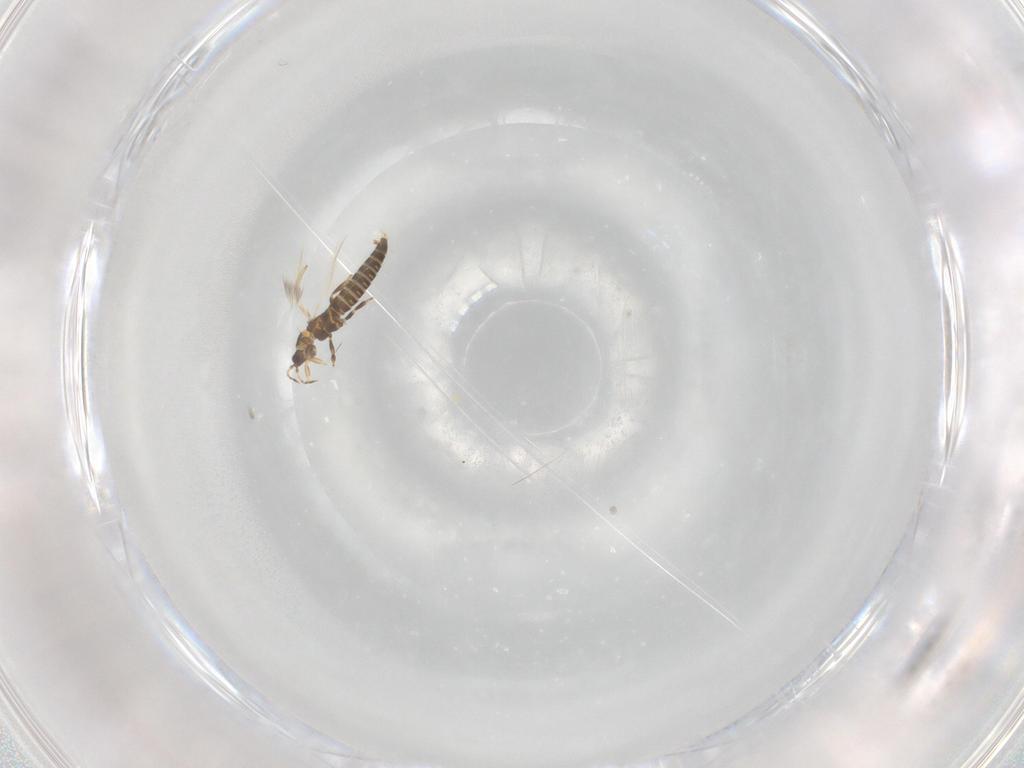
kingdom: Animalia
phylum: Arthropoda
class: Insecta
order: Thysanoptera
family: Thripidae
